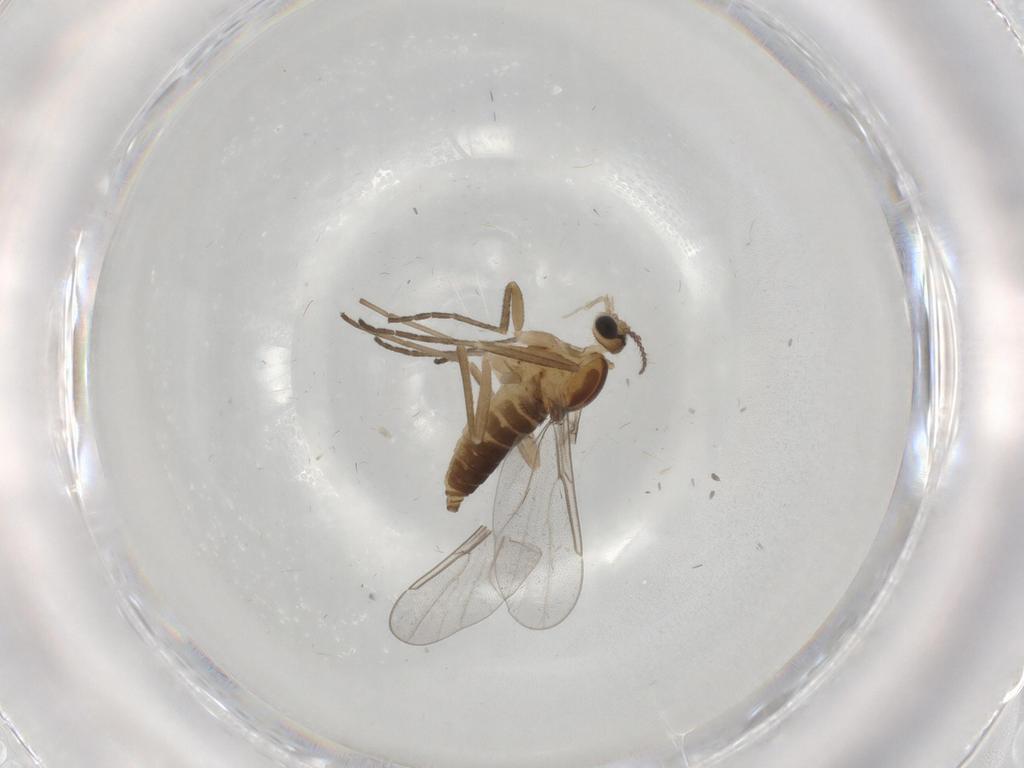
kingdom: Animalia
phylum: Arthropoda
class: Insecta
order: Diptera
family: Cecidomyiidae
